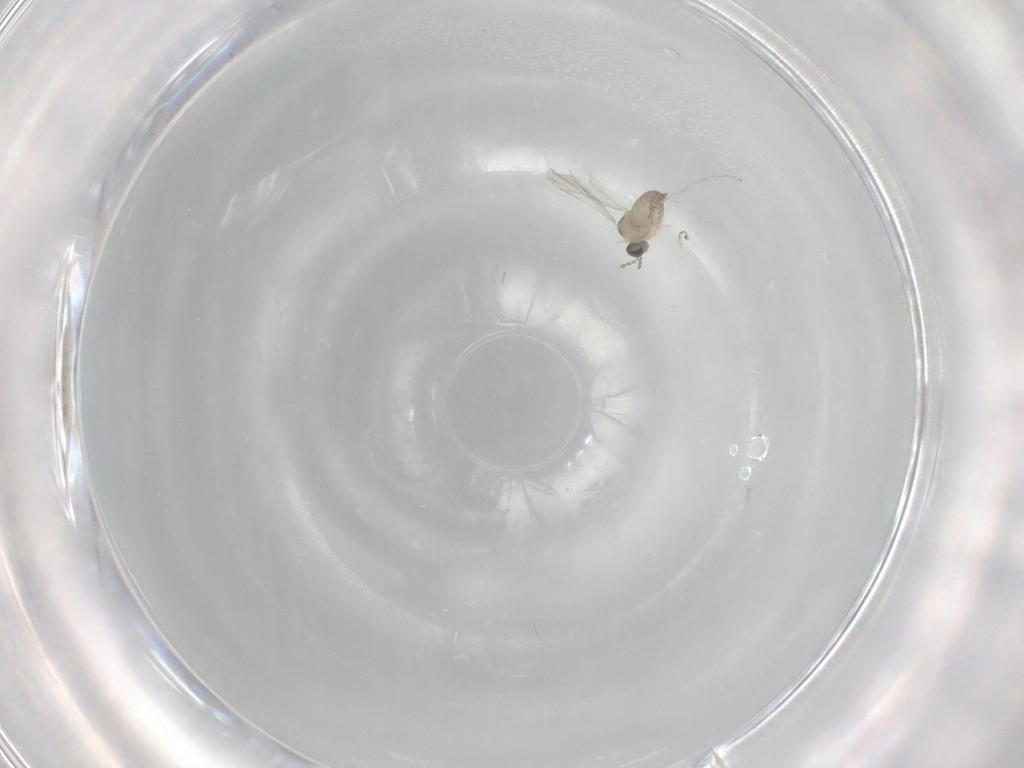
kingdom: Animalia
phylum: Arthropoda
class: Insecta
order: Diptera
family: Cecidomyiidae
